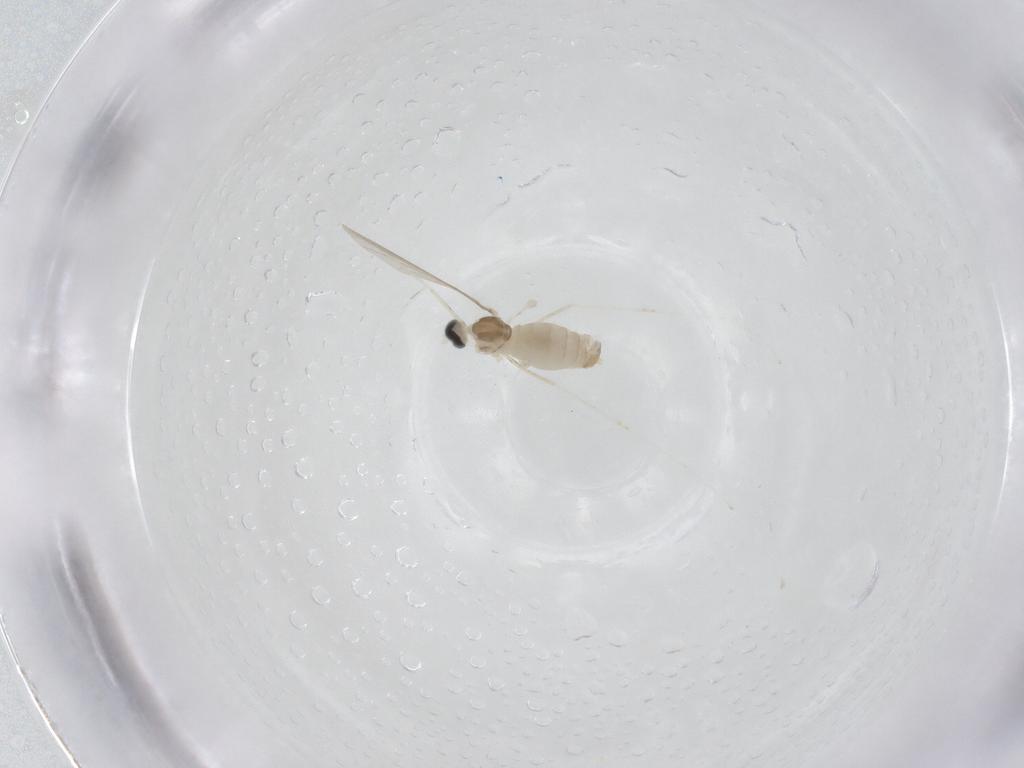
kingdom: Animalia
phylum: Arthropoda
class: Insecta
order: Diptera
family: Cecidomyiidae
